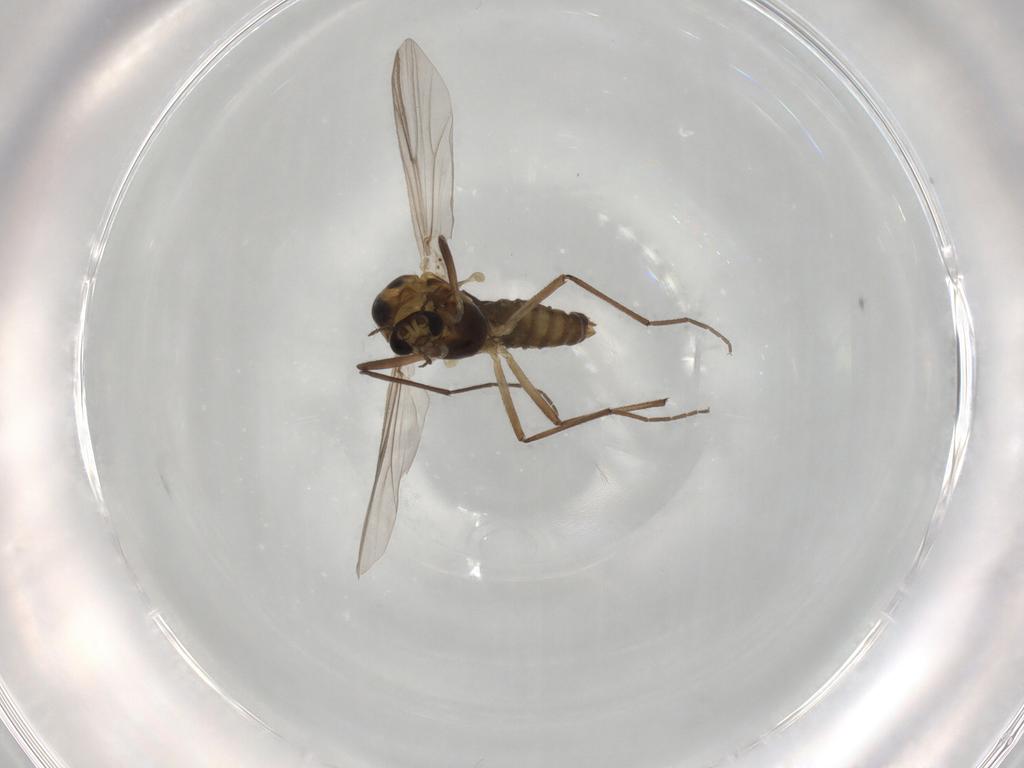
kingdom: Animalia
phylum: Arthropoda
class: Insecta
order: Diptera
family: Chironomidae
